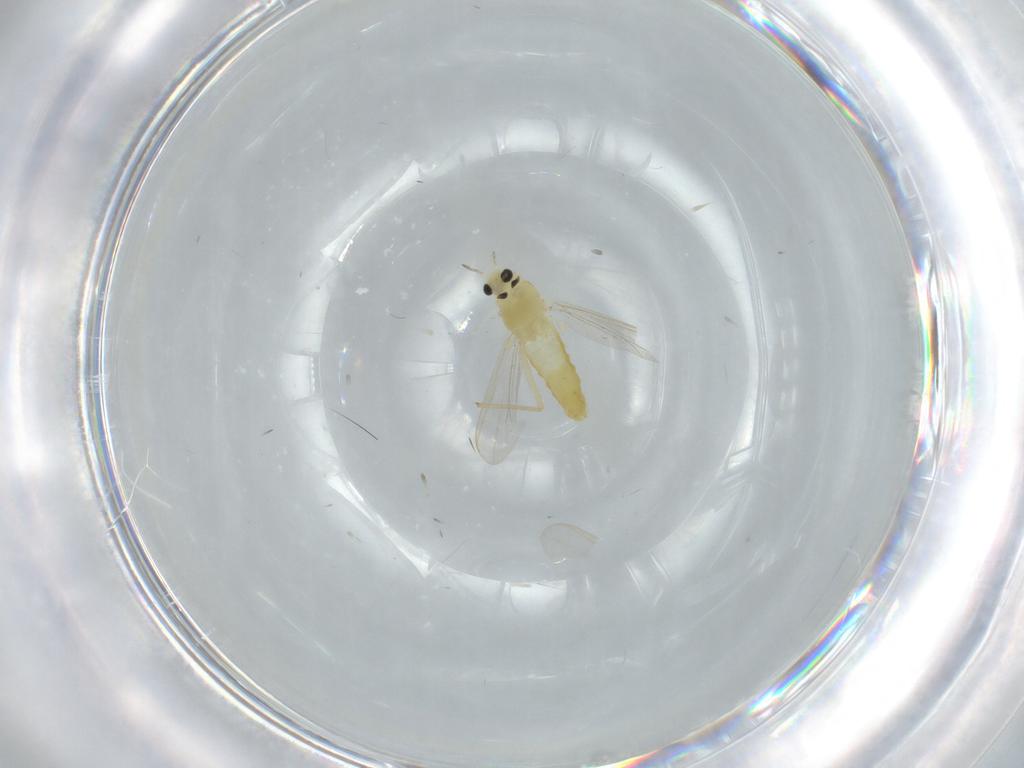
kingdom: Animalia
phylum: Arthropoda
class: Insecta
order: Diptera
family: Chironomidae
